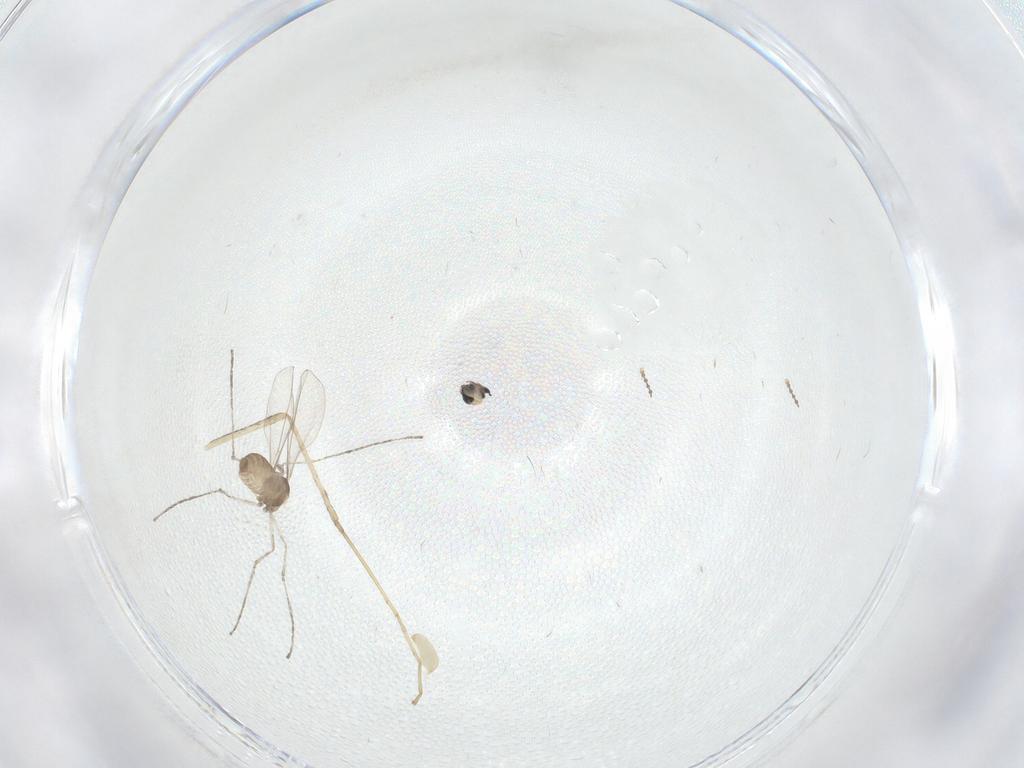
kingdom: Animalia
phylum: Arthropoda
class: Insecta
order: Diptera
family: Cecidomyiidae
